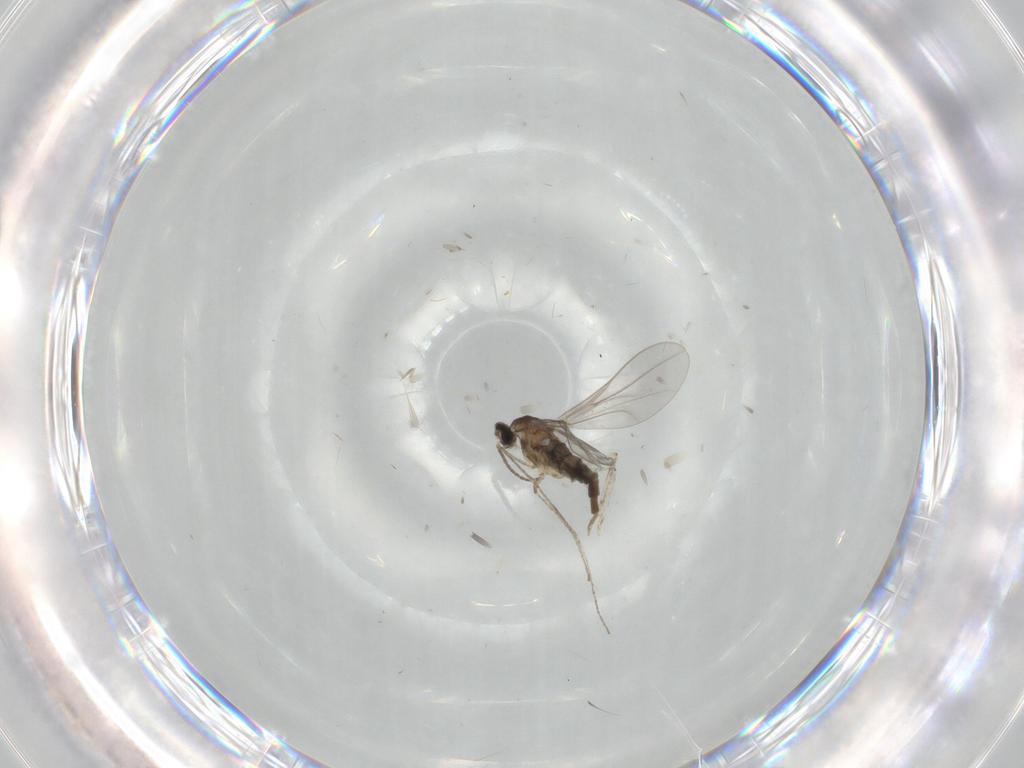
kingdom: Animalia
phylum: Arthropoda
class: Insecta
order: Diptera
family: Cecidomyiidae
